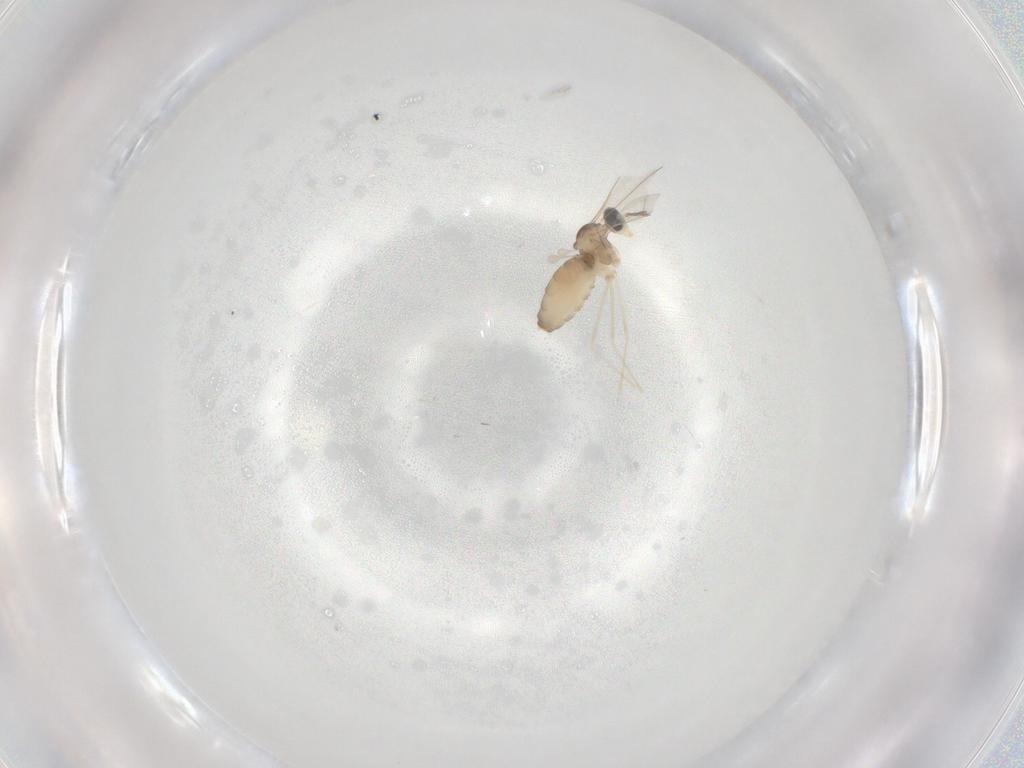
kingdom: Animalia
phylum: Arthropoda
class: Insecta
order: Diptera
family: Cecidomyiidae
